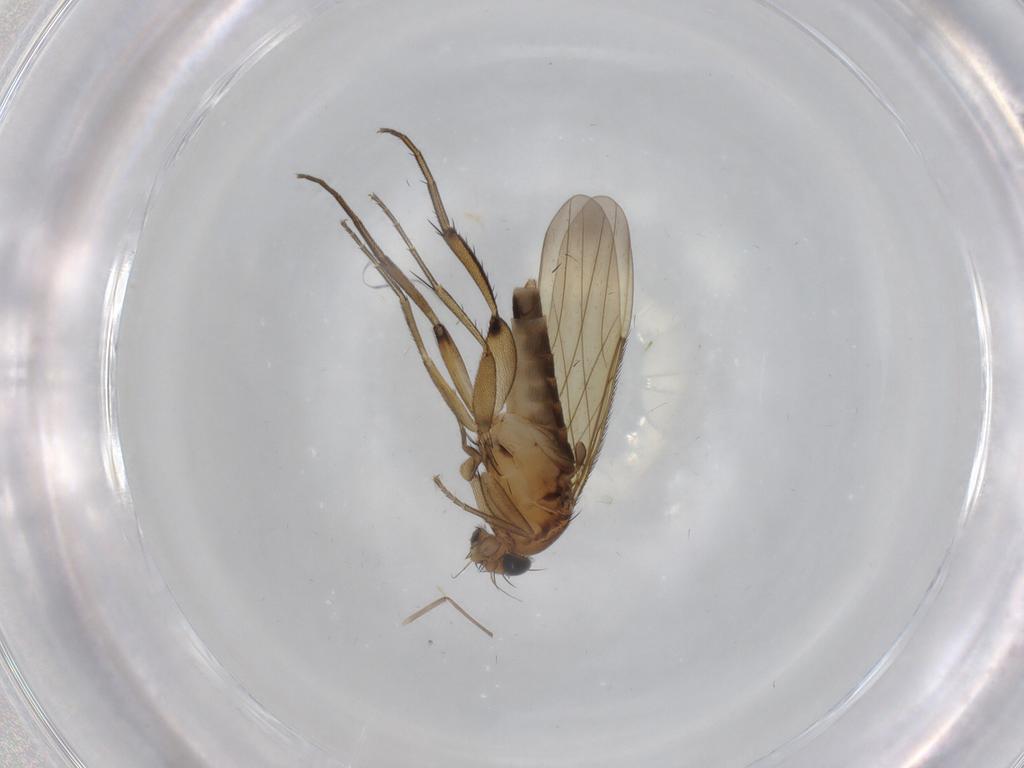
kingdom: Animalia
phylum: Arthropoda
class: Insecta
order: Diptera
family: Phoridae
